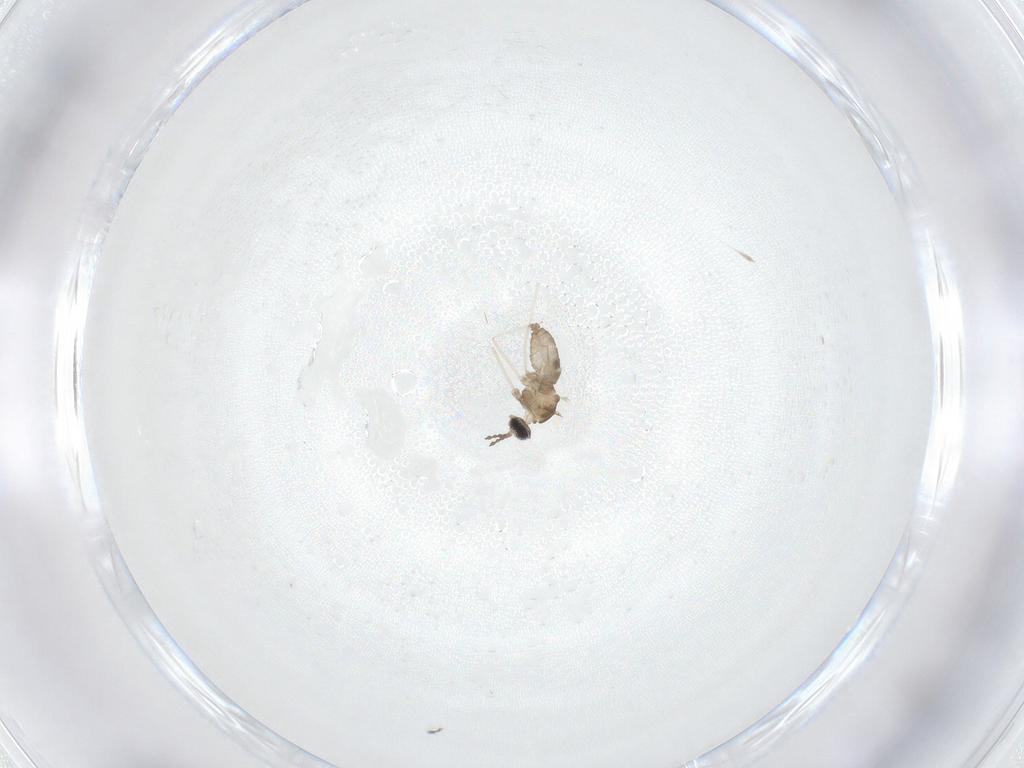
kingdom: Animalia
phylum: Arthropoda
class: Insecta
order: Diptera
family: Cecidomyiidae
